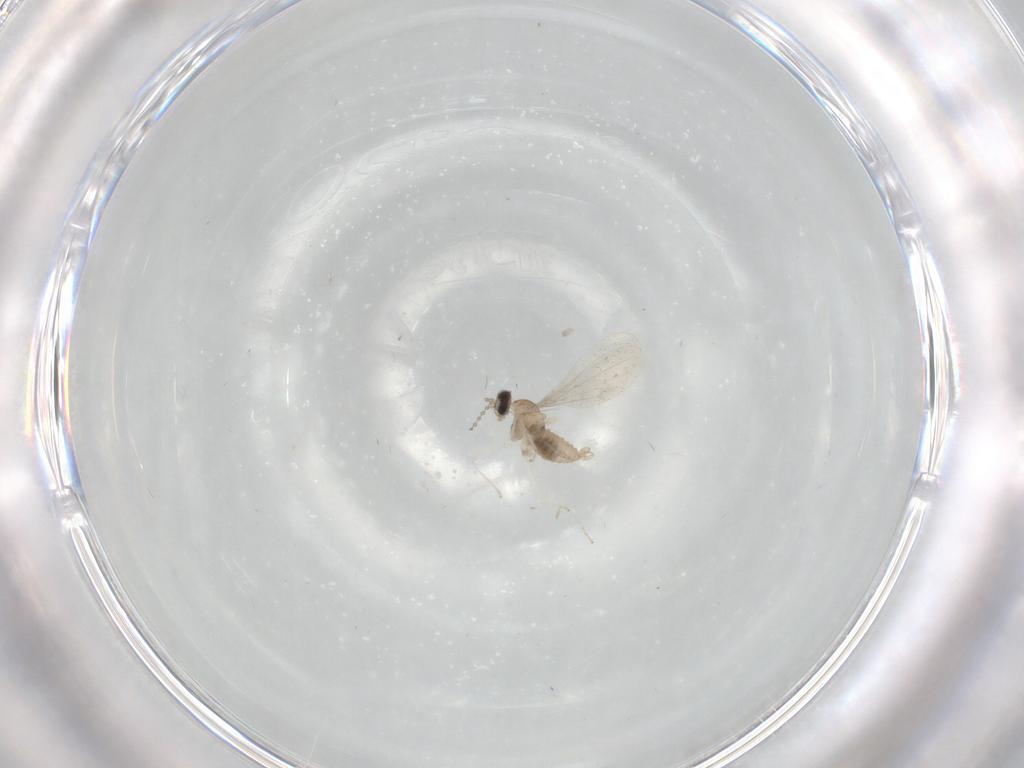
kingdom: Animalia
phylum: Arthropoda
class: Insecta
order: Diptera
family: Cecidomyiidae
